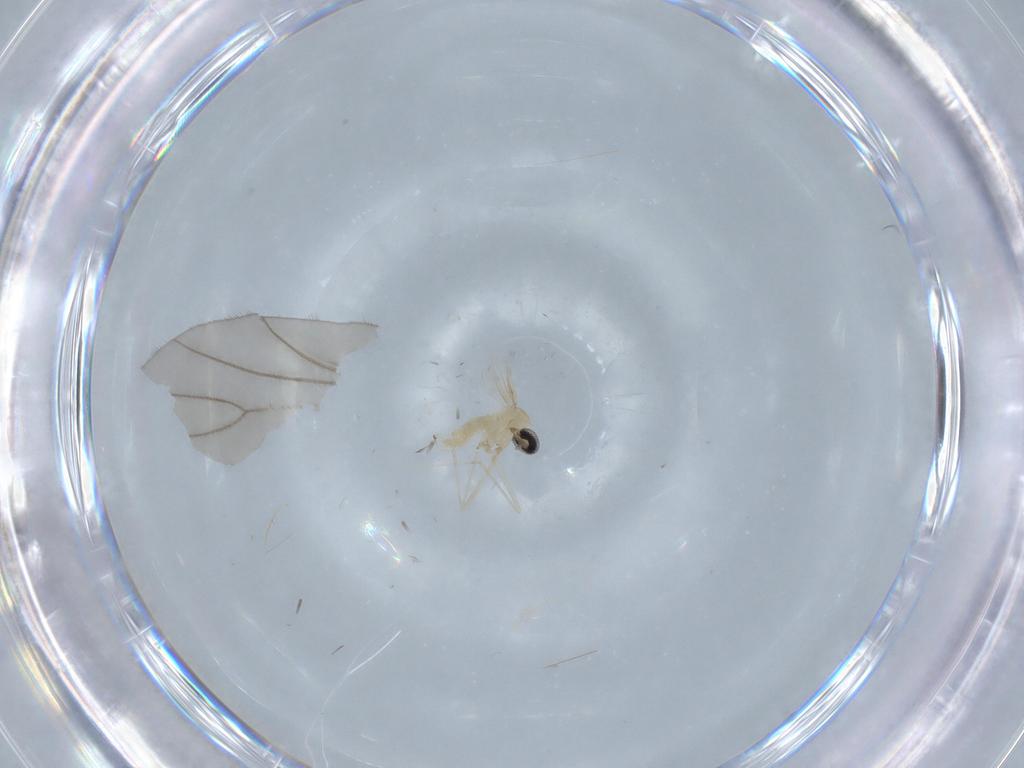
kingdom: Animalia
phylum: Arthropoda
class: Insecta
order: Diptera
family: Cecidomyiidae
